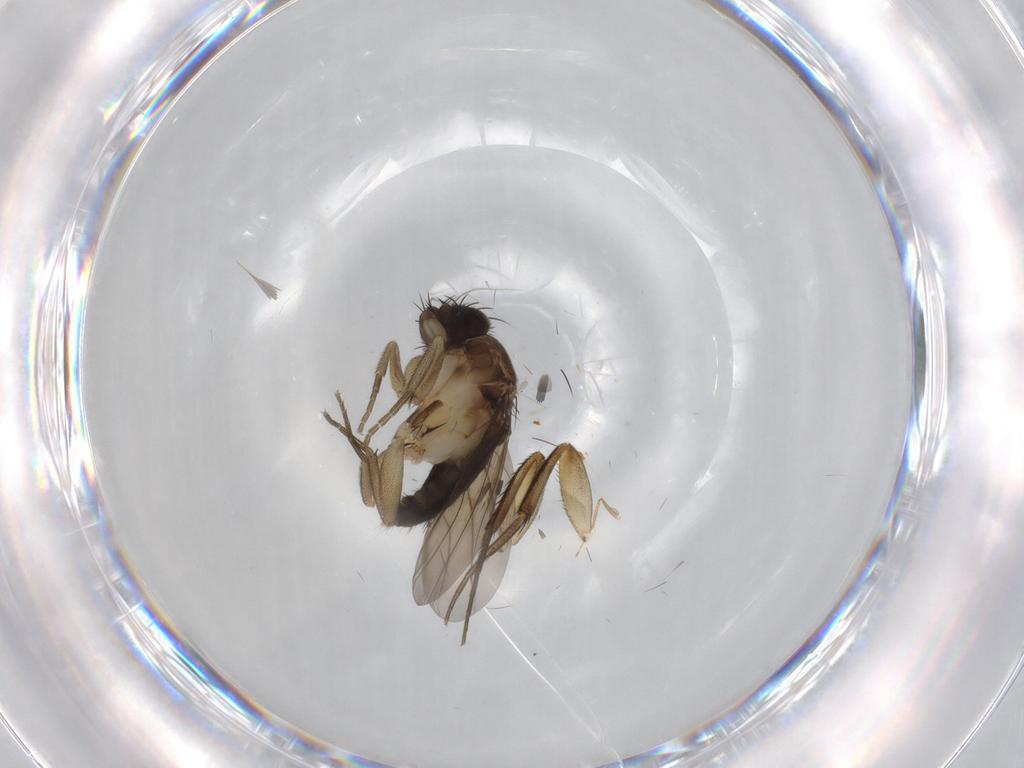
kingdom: Animalia
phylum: Arthropoda
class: Insecta
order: Diptera
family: Phoridae
